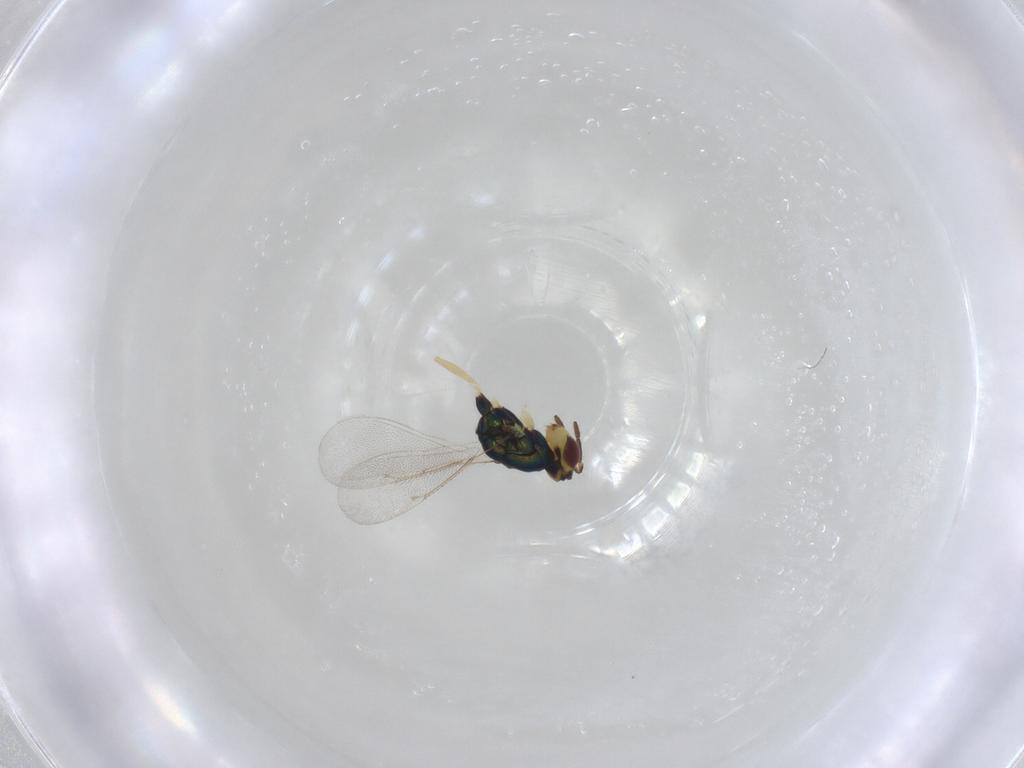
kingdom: Animalia
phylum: Arthropoda
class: Insecta
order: Hymenoptera
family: Eulophidae
